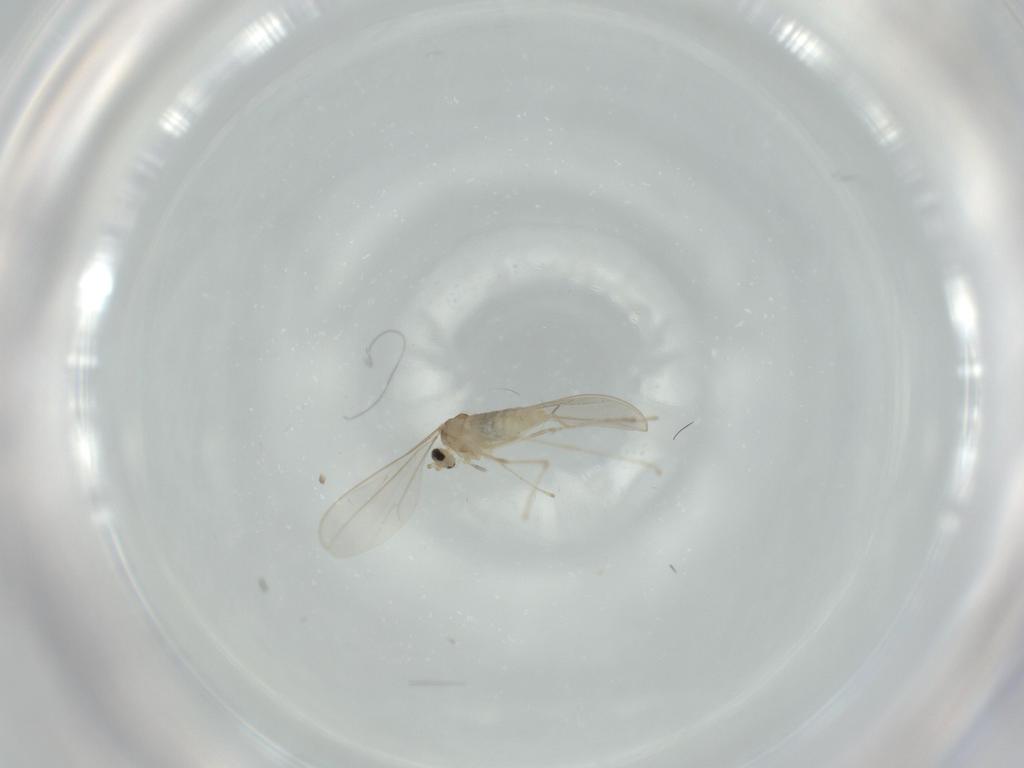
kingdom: Animalia
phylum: Arthropoda
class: Insecta
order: Diptera
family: Cecidomyiidae
